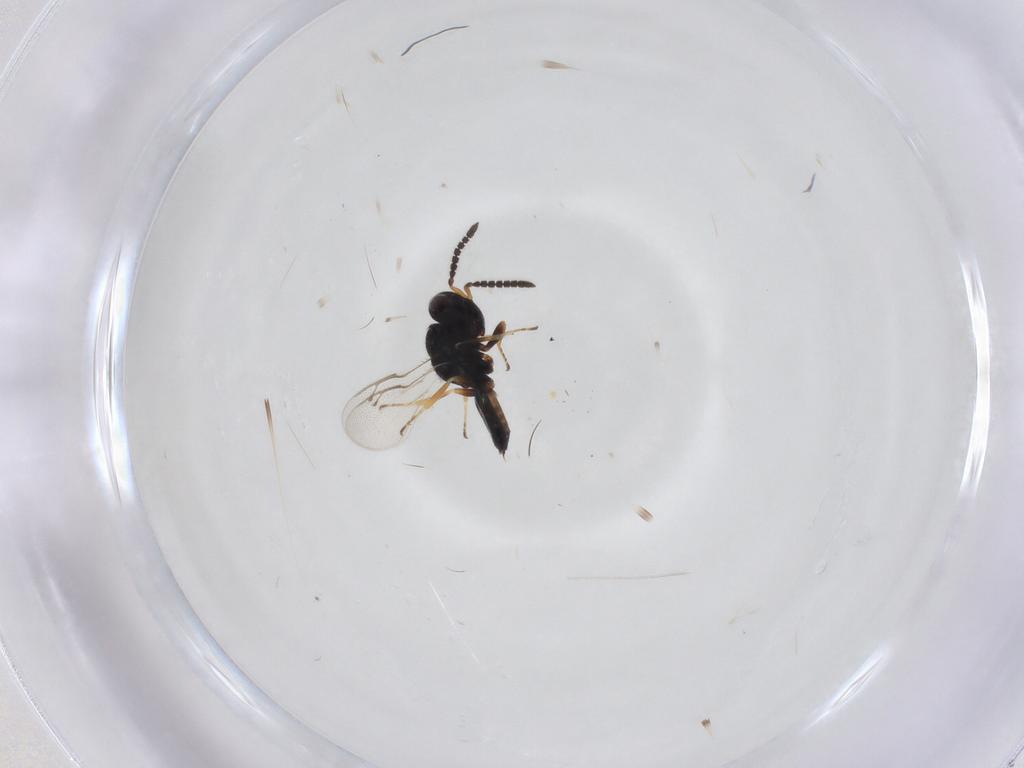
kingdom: Animalia
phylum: Arthropoda
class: Insecta
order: Hymenoptera
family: Pteromalidae
